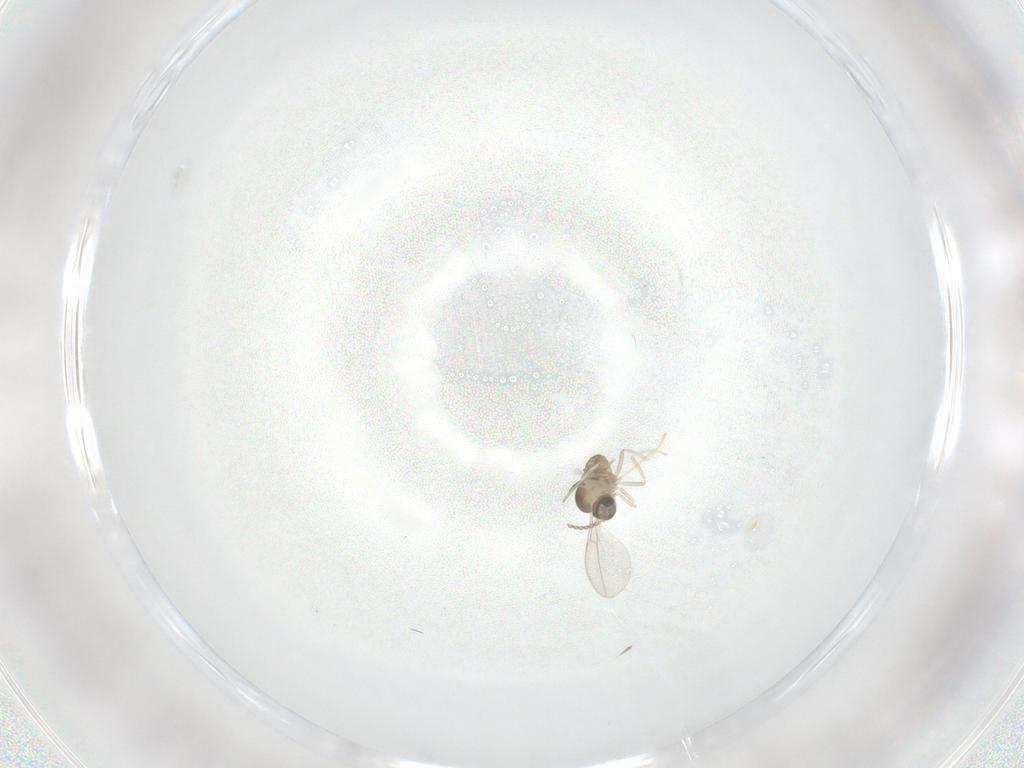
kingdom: Animalia
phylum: Arthropoda
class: Insecta
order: Diptera
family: Cecidomyiidae
